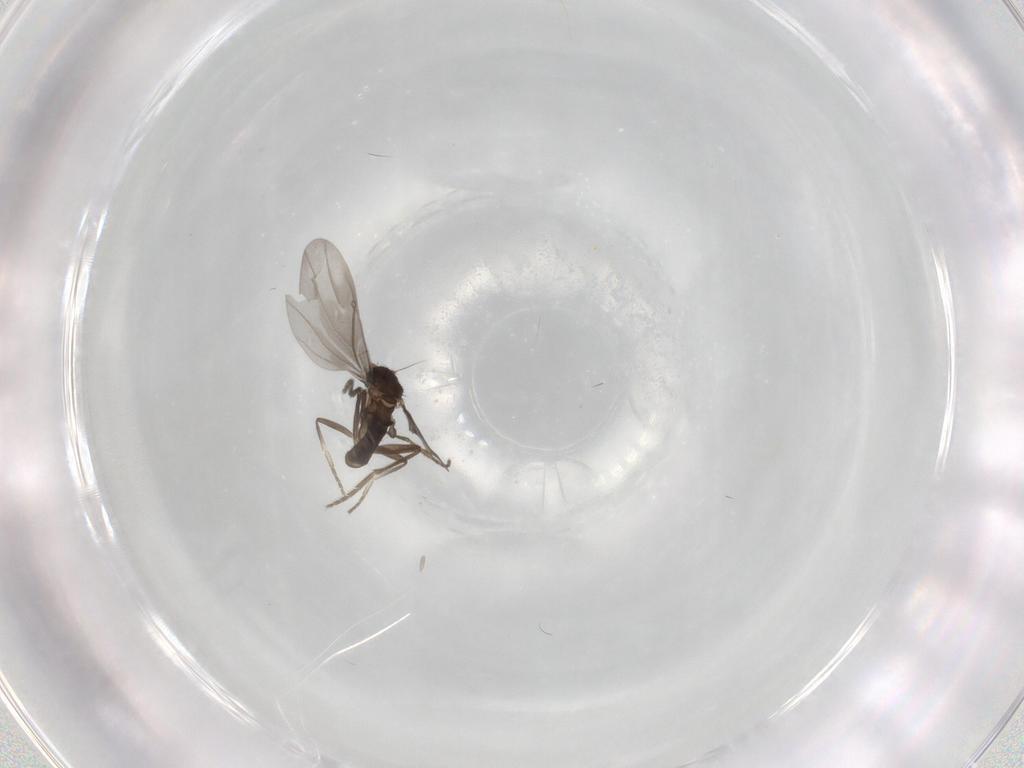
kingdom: Animalia
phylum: Arthropoda
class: Insecta
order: Diptera
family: Phoridae
